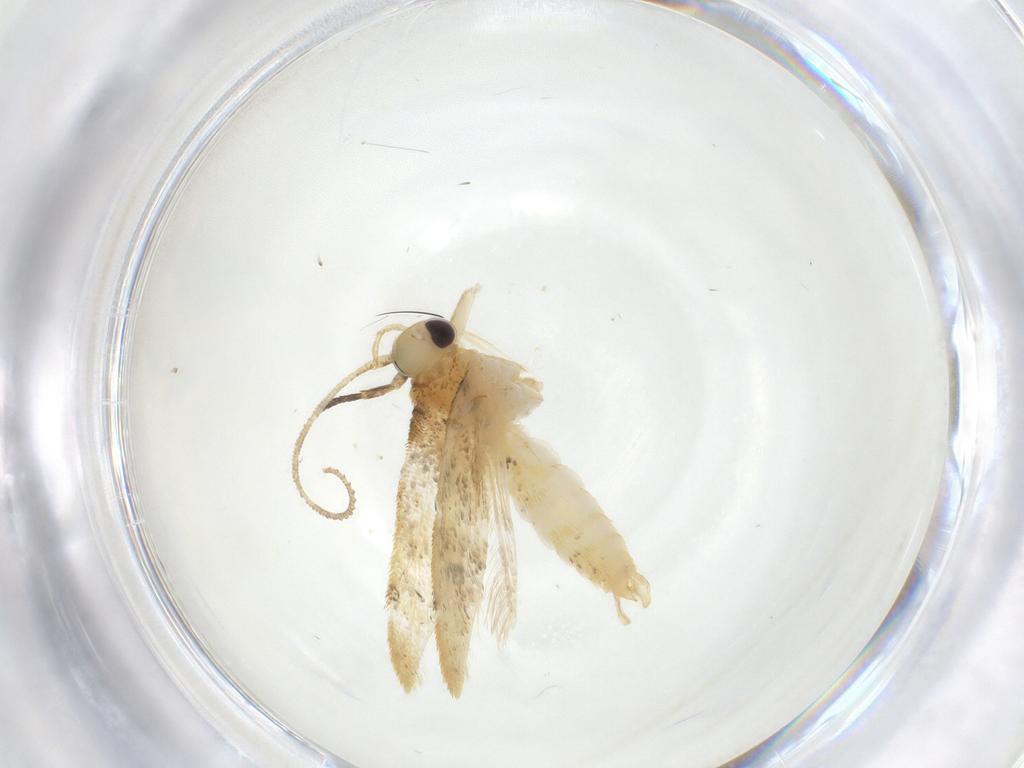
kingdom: Animalia
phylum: Arthropoda
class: Insecta
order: Lepidoptera
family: Erebidae
